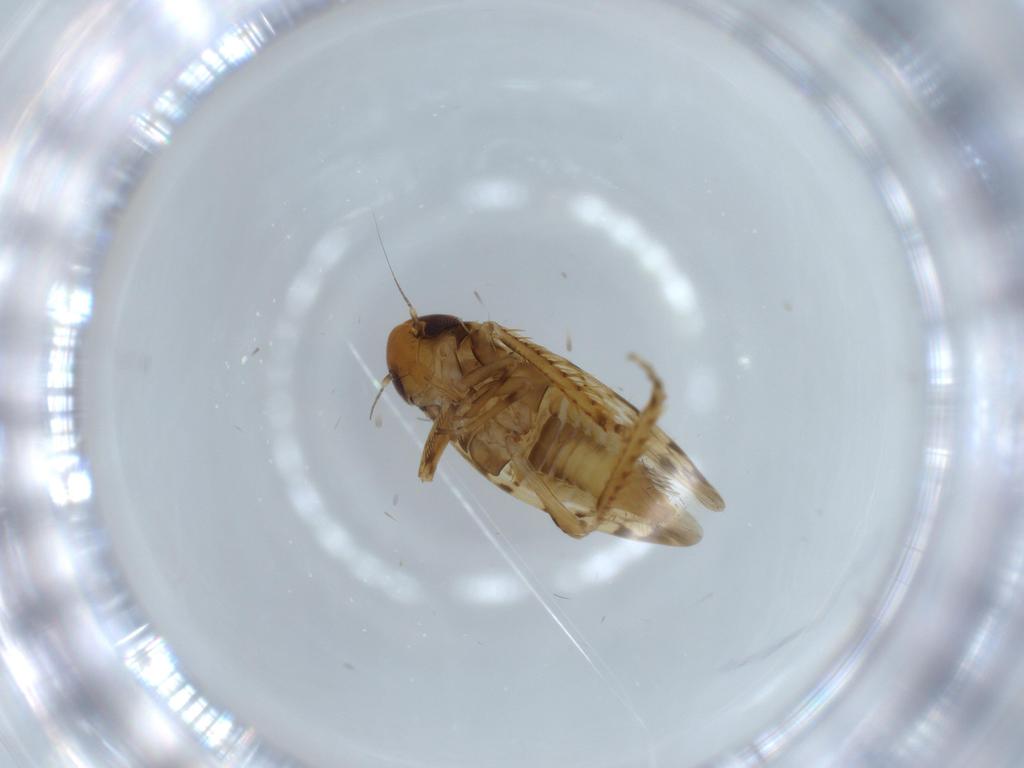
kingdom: Animalia
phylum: Arthropoda
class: Insecta
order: Hemiptera
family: Cicadellidae
